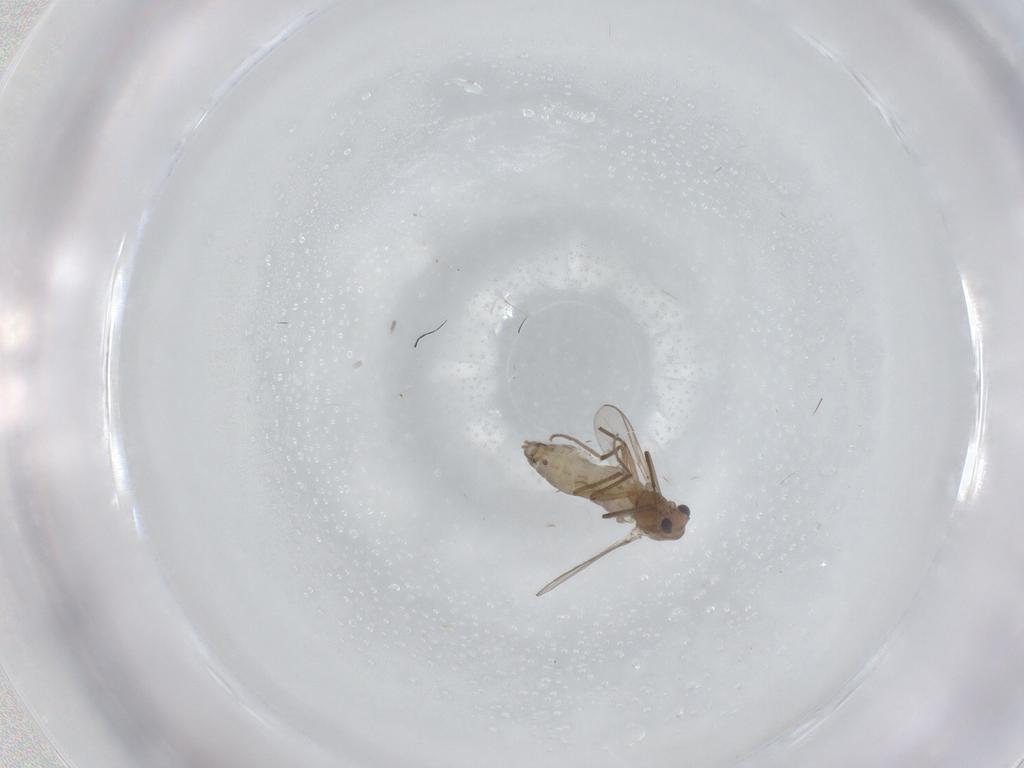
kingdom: Animalia
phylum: Arthropoda
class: Insecta
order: Diptera
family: Chironomidae
